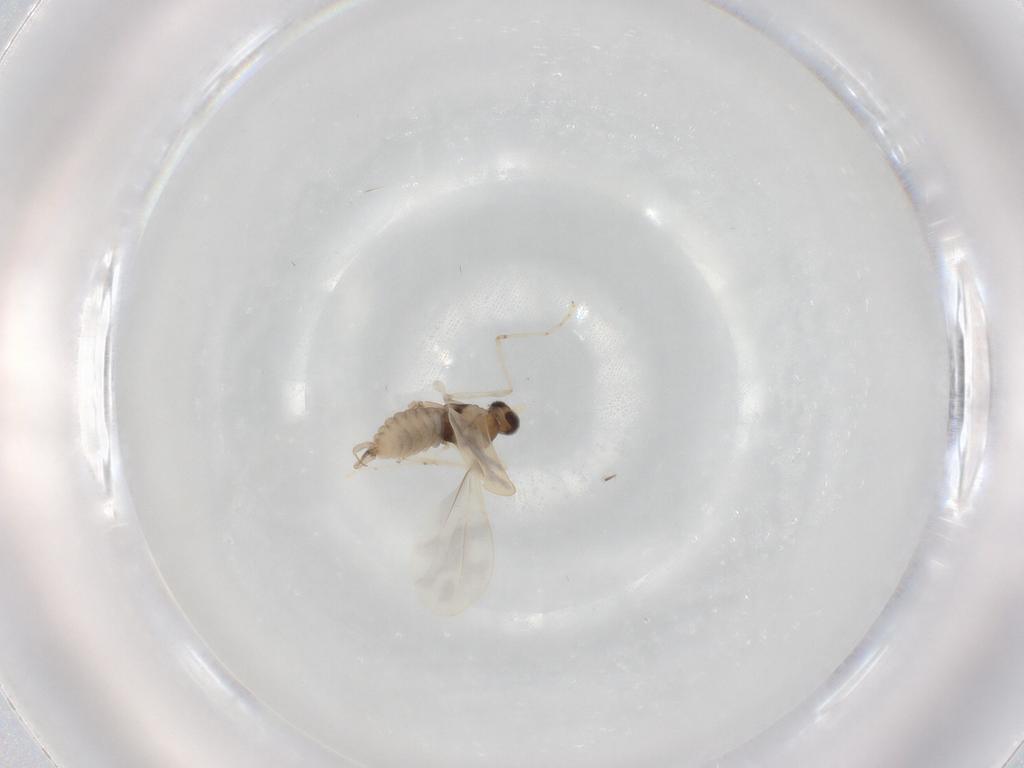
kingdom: Animalia
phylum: Arthropoda
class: Insecta
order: Diptera
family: Cecidomyiidae
